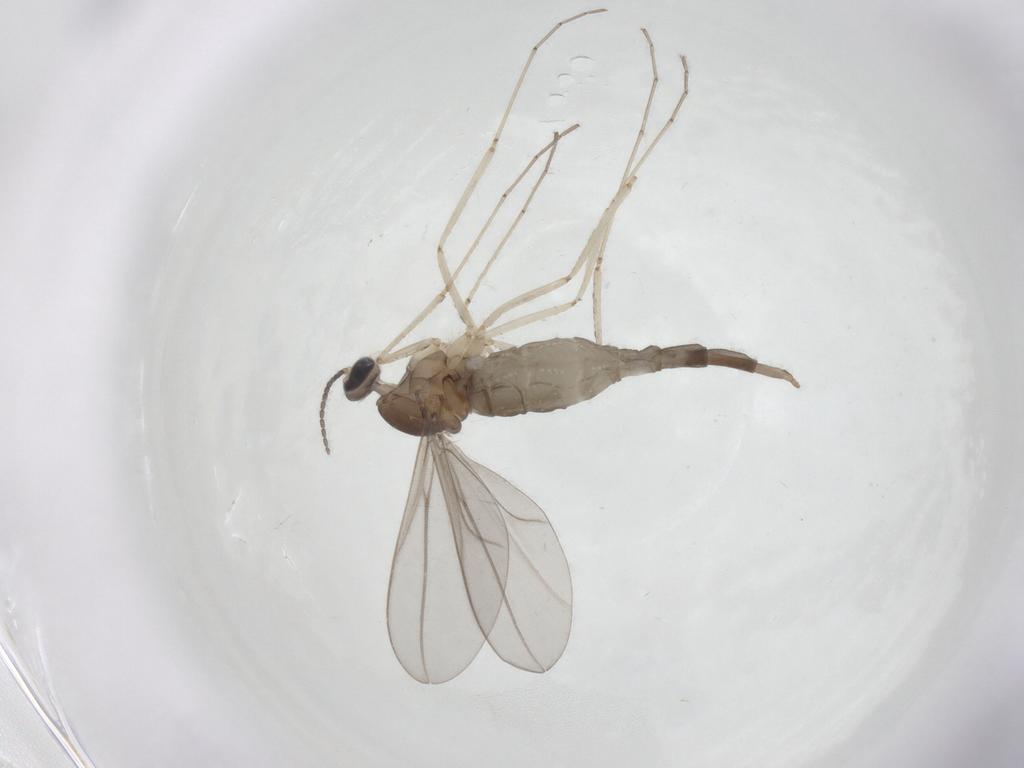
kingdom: Animalia
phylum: Arthropoda
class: Insecta
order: Diptera
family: Cecidomyiidae
